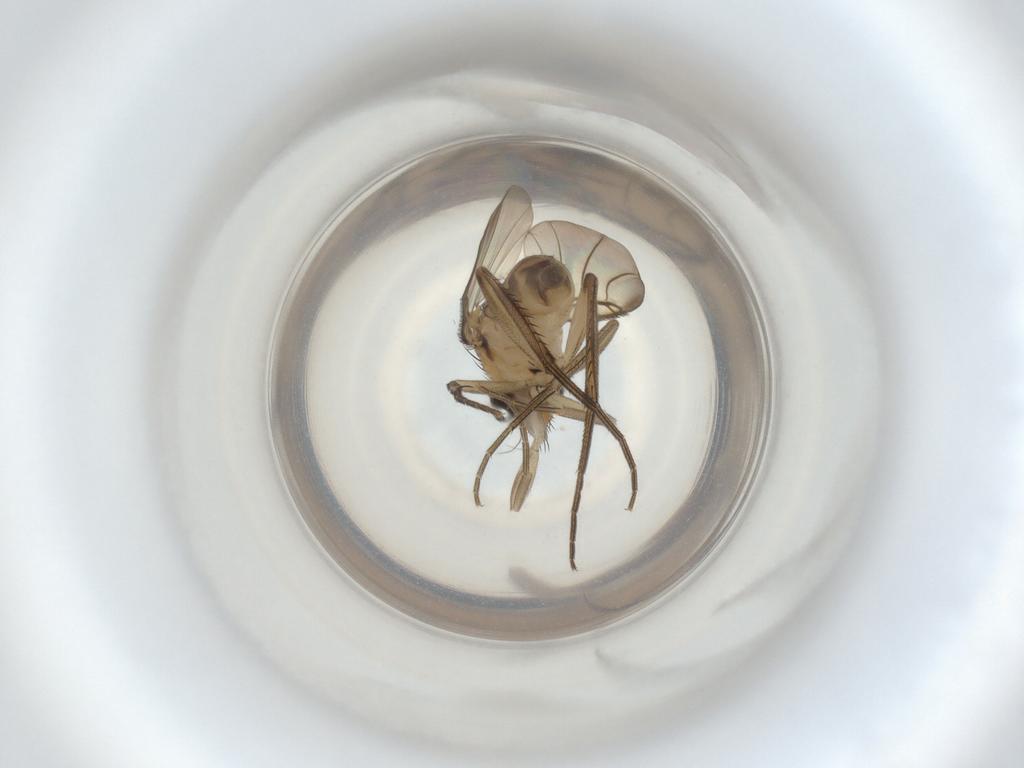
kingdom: Animalia
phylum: Arthropoda
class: Insecta
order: Diptera
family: Phoridae
